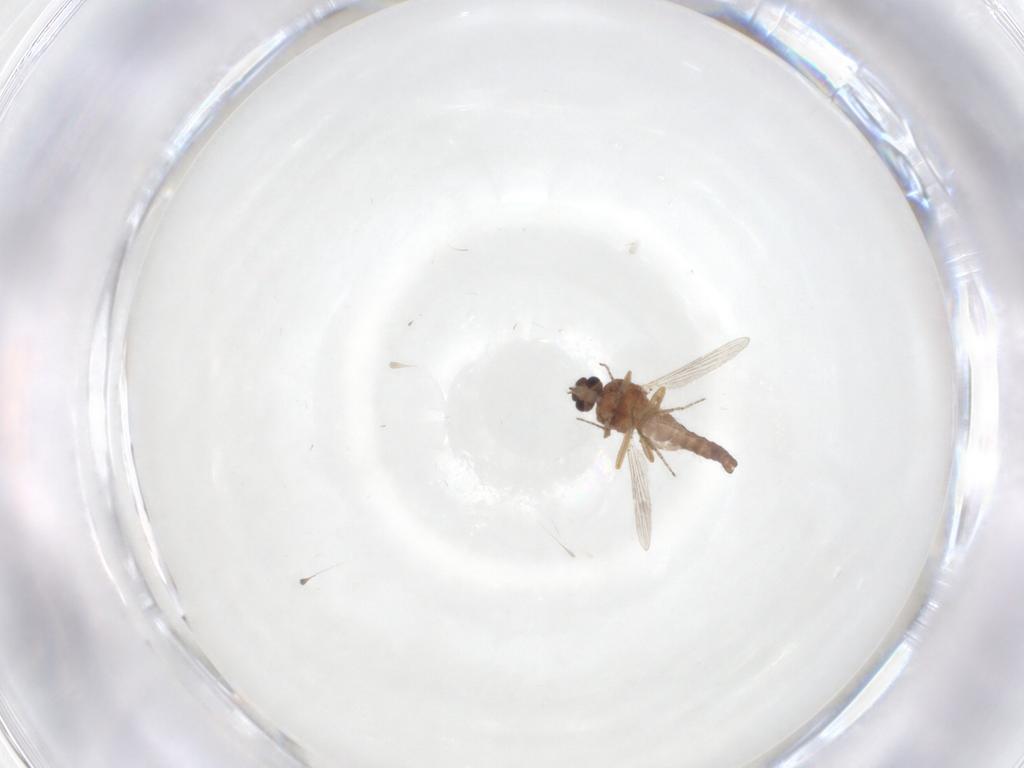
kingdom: Animalia
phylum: Arthropoda
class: Insecta
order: Diptera
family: Ceratopogonidae
